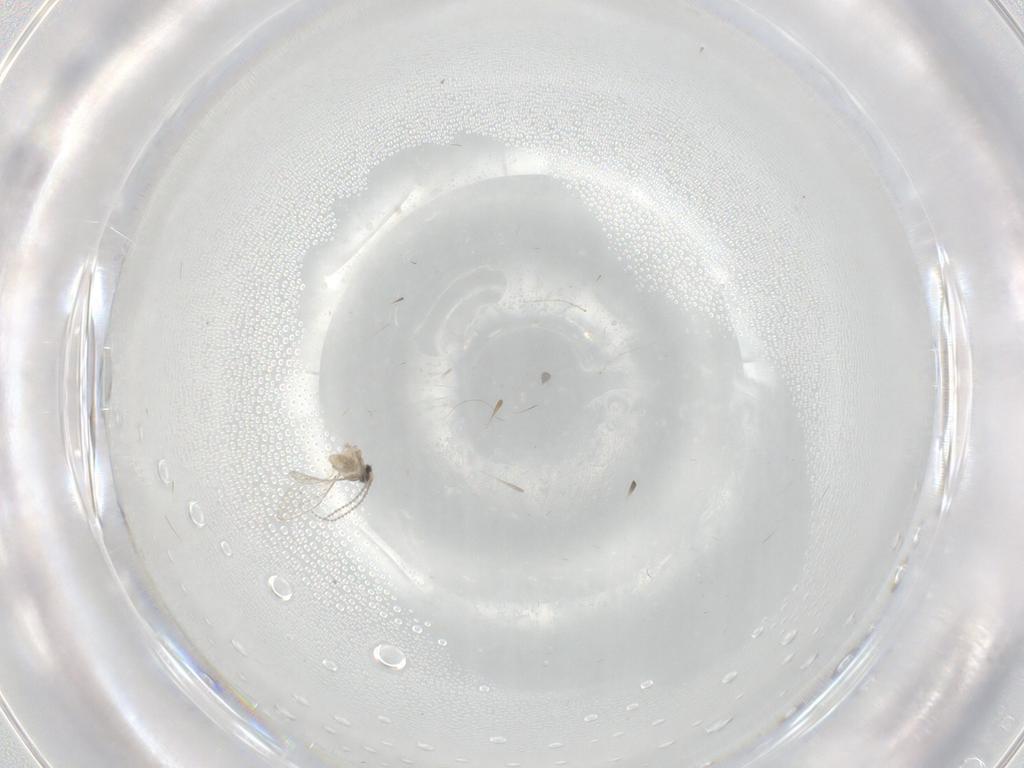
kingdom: Animalia
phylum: Arthropoda
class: Insecta
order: Diptera
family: Cecidomyiidae
